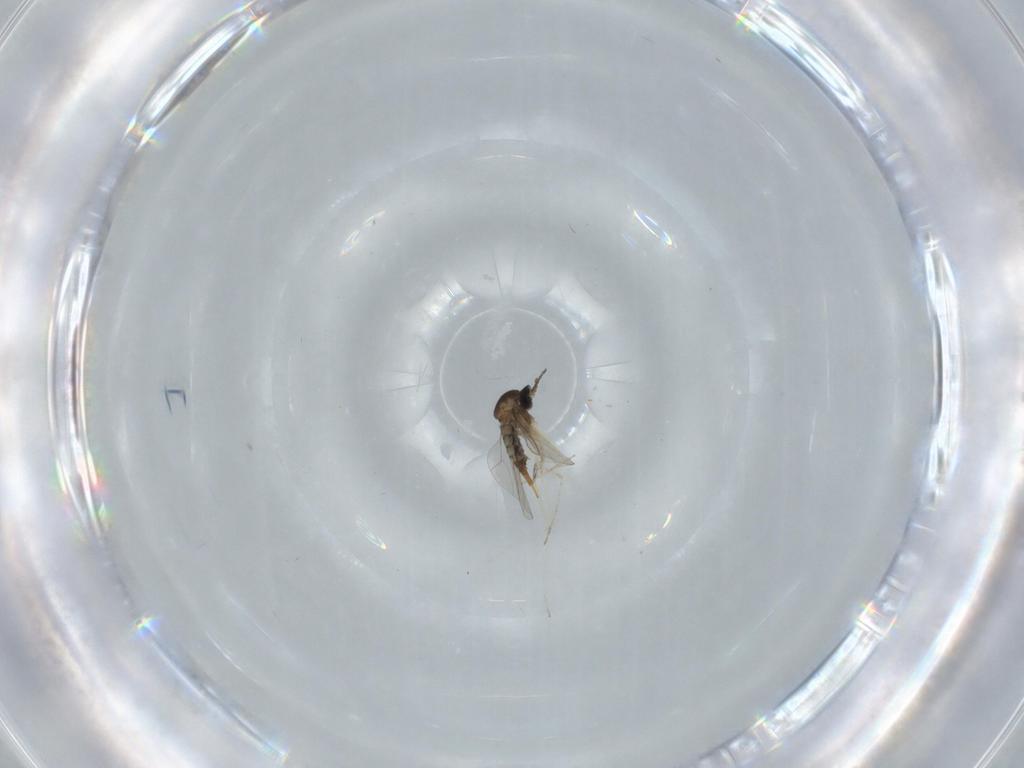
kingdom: Animalia
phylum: Arthropoda
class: Insecta
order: Diptera
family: Cecidomyiidae
